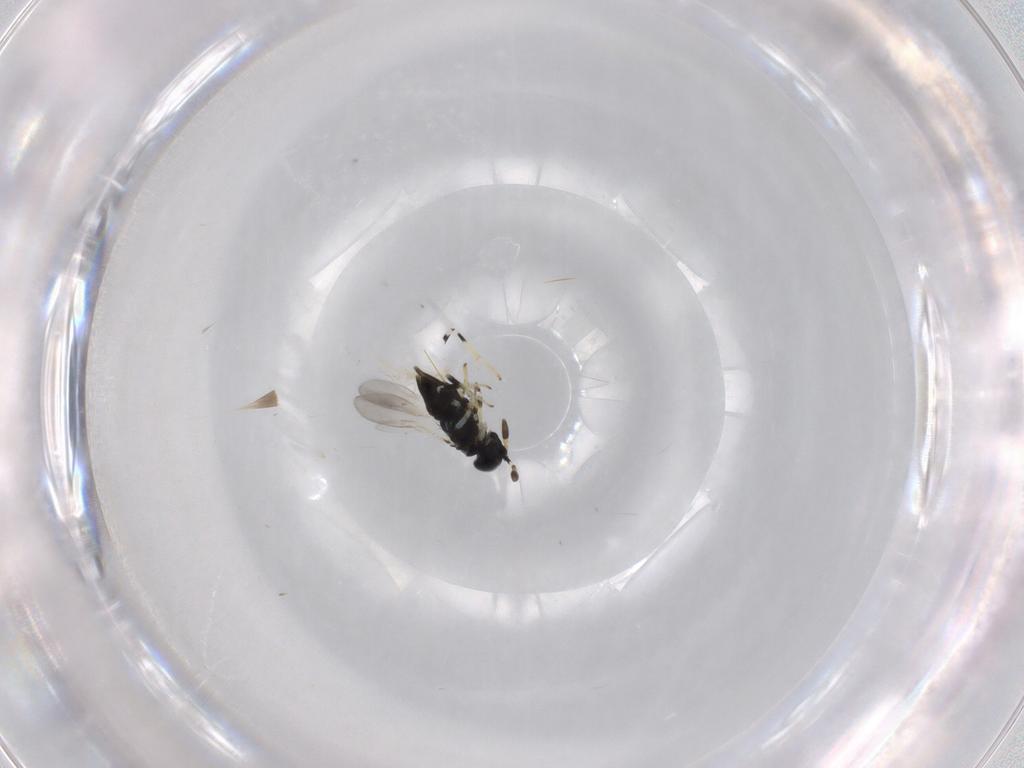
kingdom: Animalia
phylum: Arthropoda
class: Insecta
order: Hymenoptera
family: Encyrtidae
